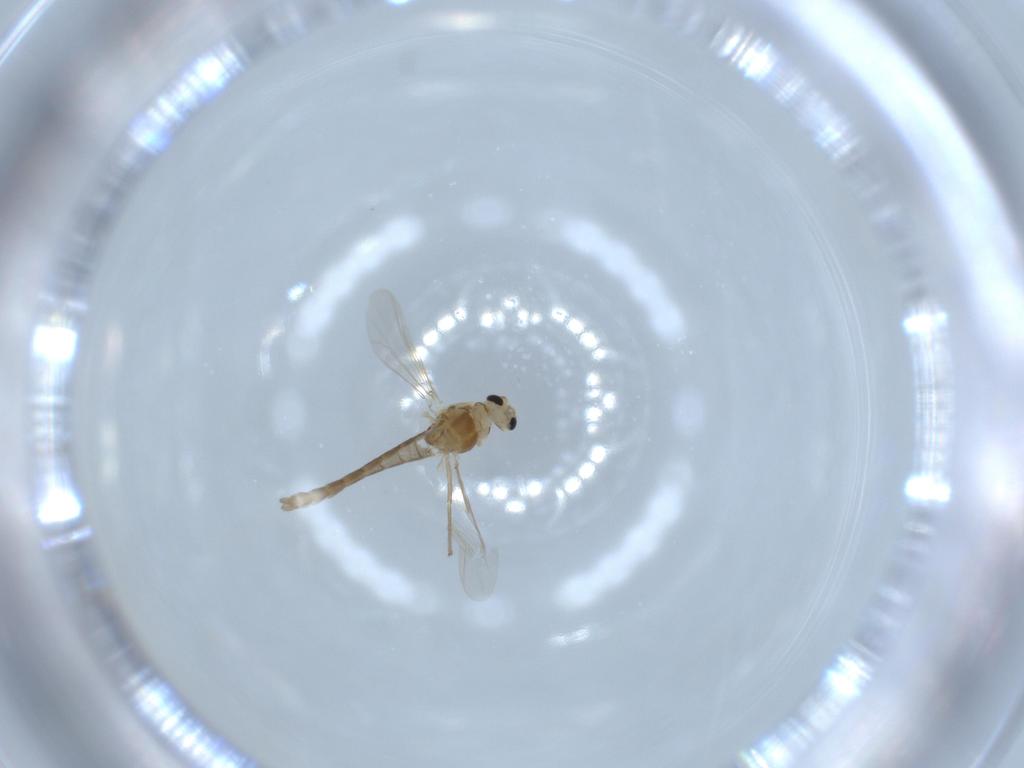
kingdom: Animalia
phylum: Arthropoda
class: Insecta
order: Diptera
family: Chironomidae
